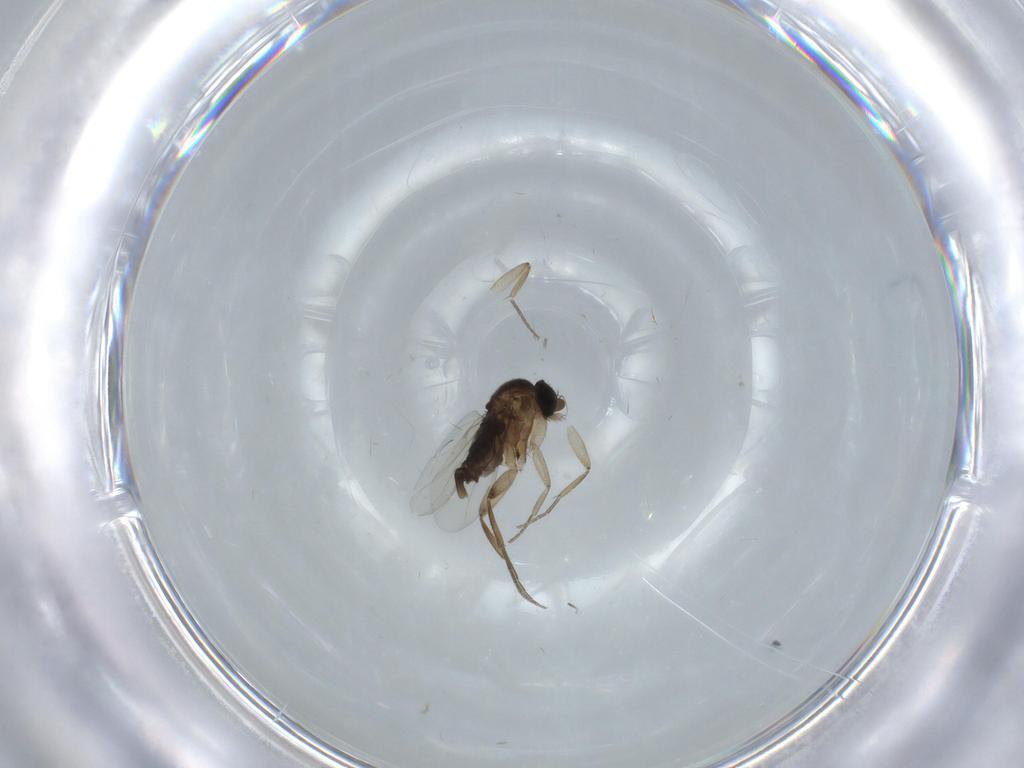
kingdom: Animalia
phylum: Arthropoda
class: Insecta
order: Diptera
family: Phoridae
